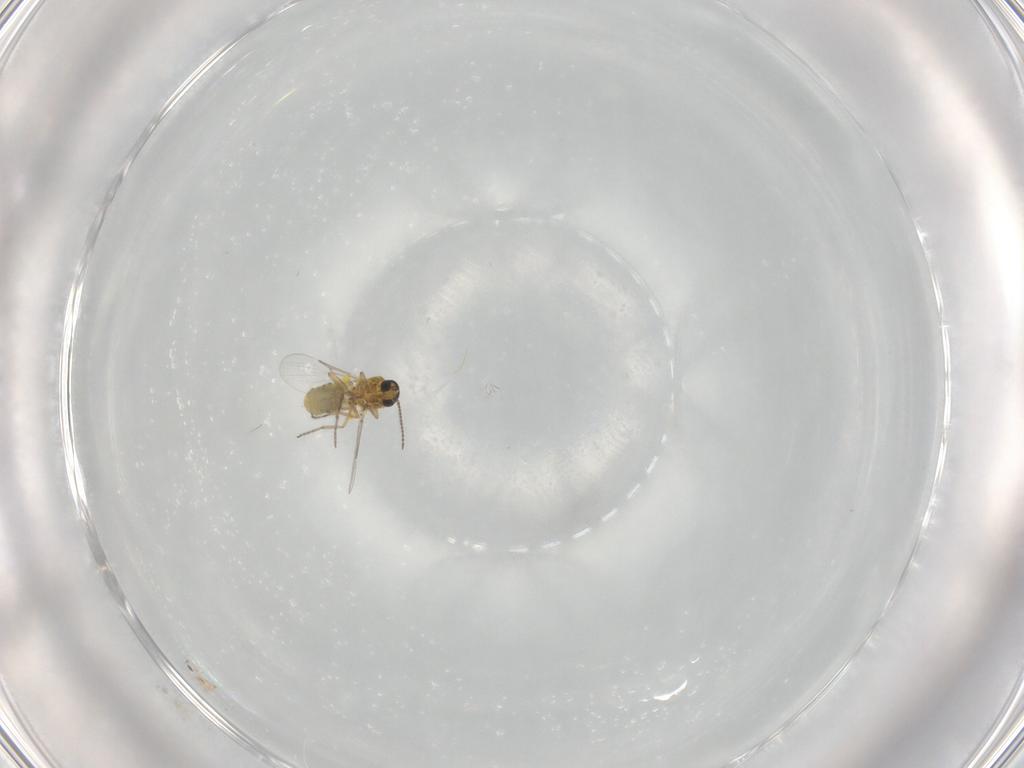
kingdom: Animalia
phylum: Arthropoda
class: Insecta
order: Diptera
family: Ceratopogonidae
